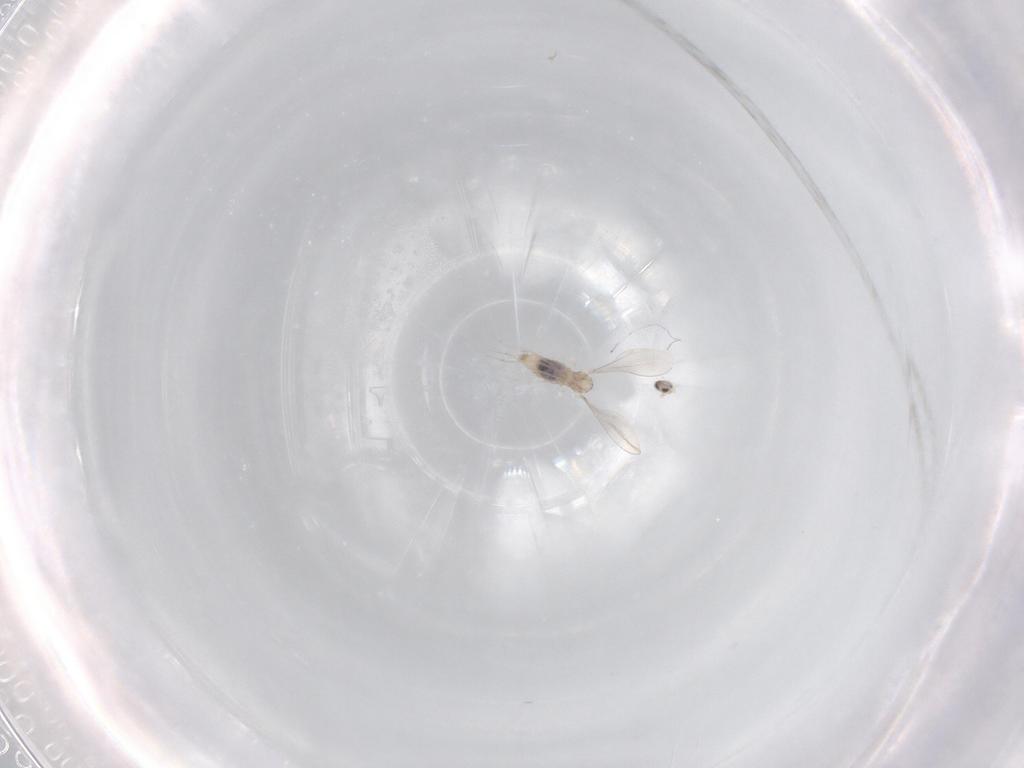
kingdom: Animalia
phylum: Arthropoda
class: Insecta
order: Diptera
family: Cecidomyiidae
